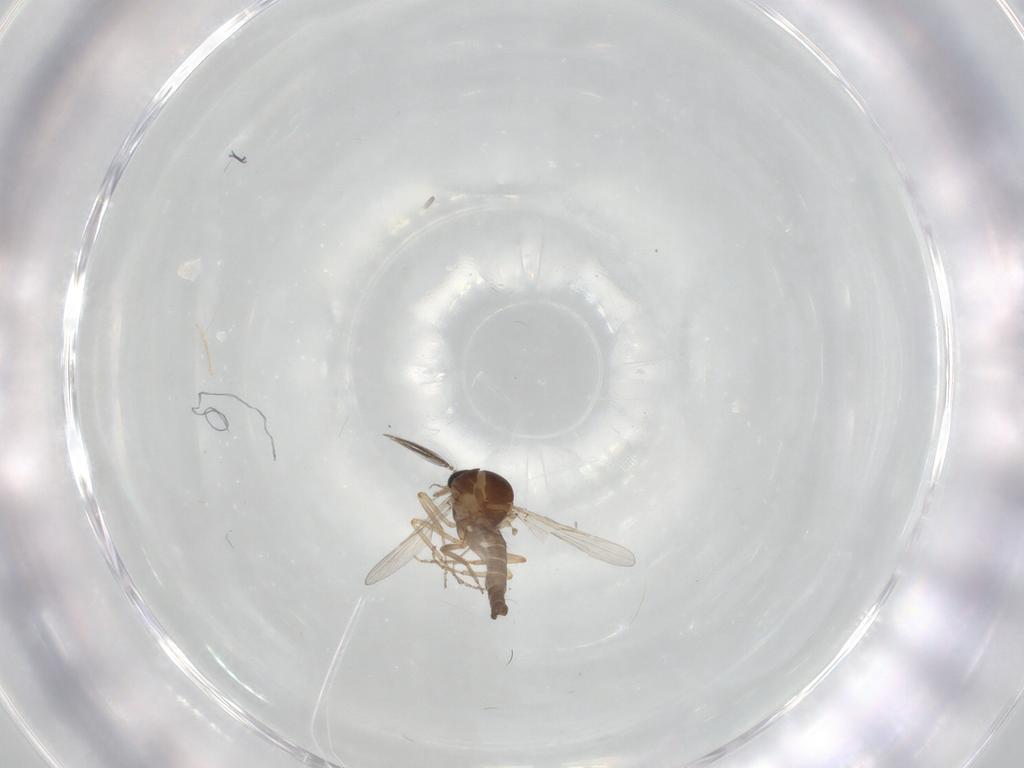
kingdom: Animalia
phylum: Arthropoda
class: Insecta
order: Diptera
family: Ceratopogonidae
